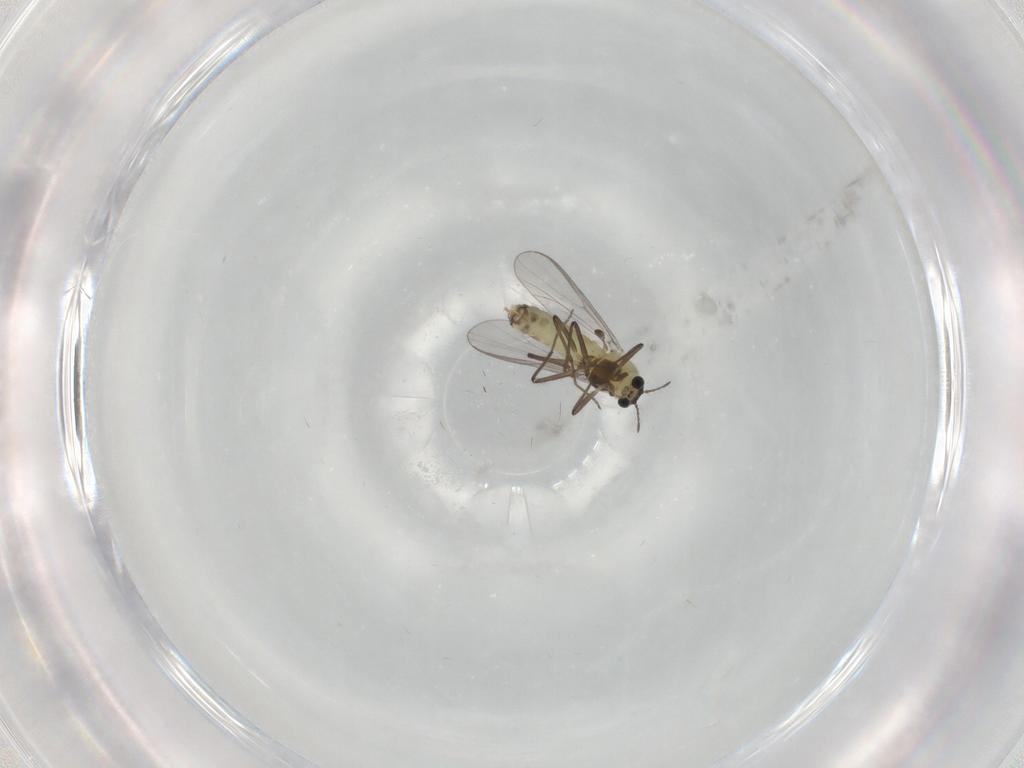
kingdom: Animalia
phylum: Arthropoda
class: Insecta
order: Diptera
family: Chironomidae
